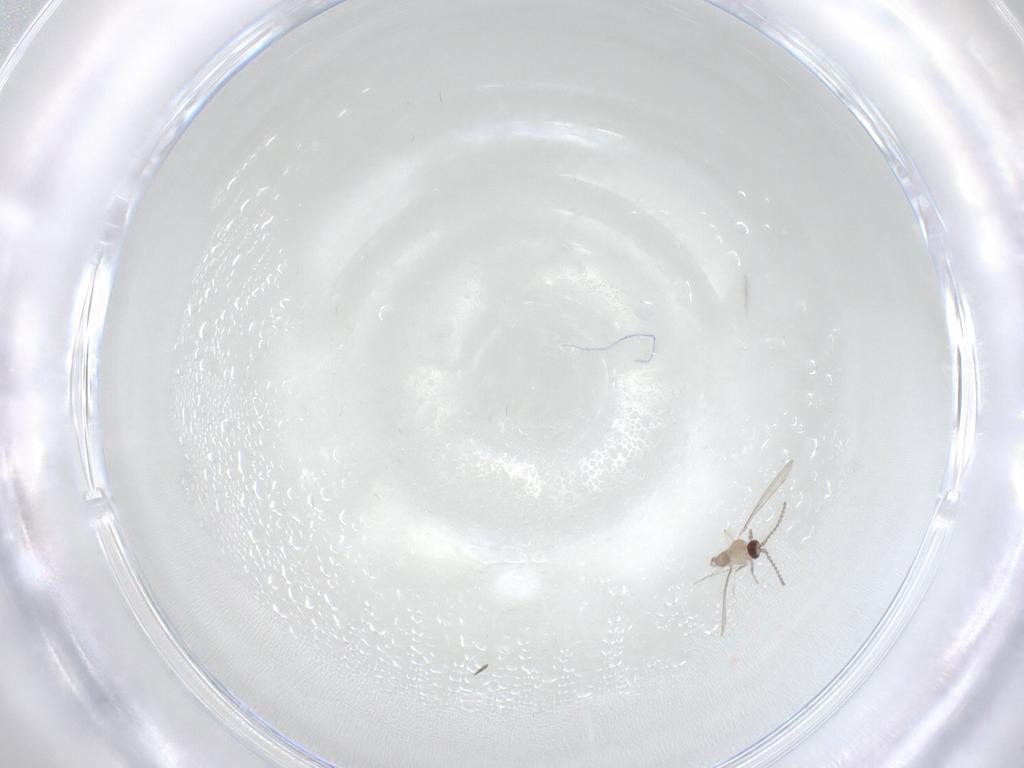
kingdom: Animalia
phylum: Arthropoda
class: Insecta
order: Diptera
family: Cecidomyiidae
